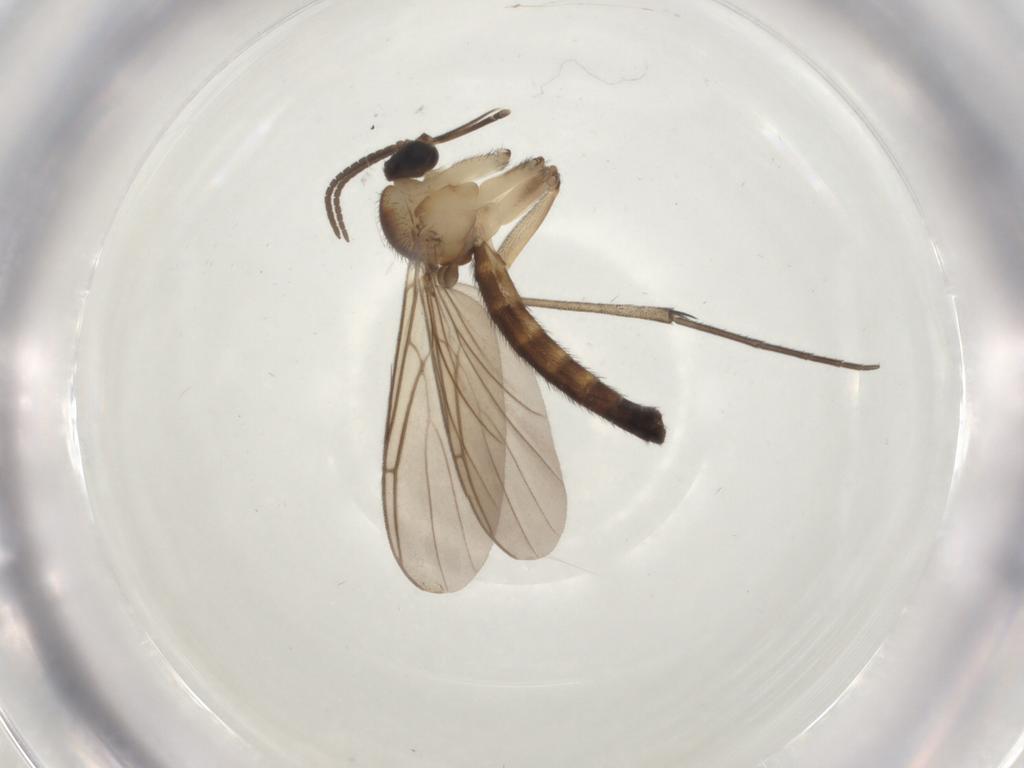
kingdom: Animalia
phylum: Arthropoda
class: Insecta
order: Diptera
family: Keroplatidae
